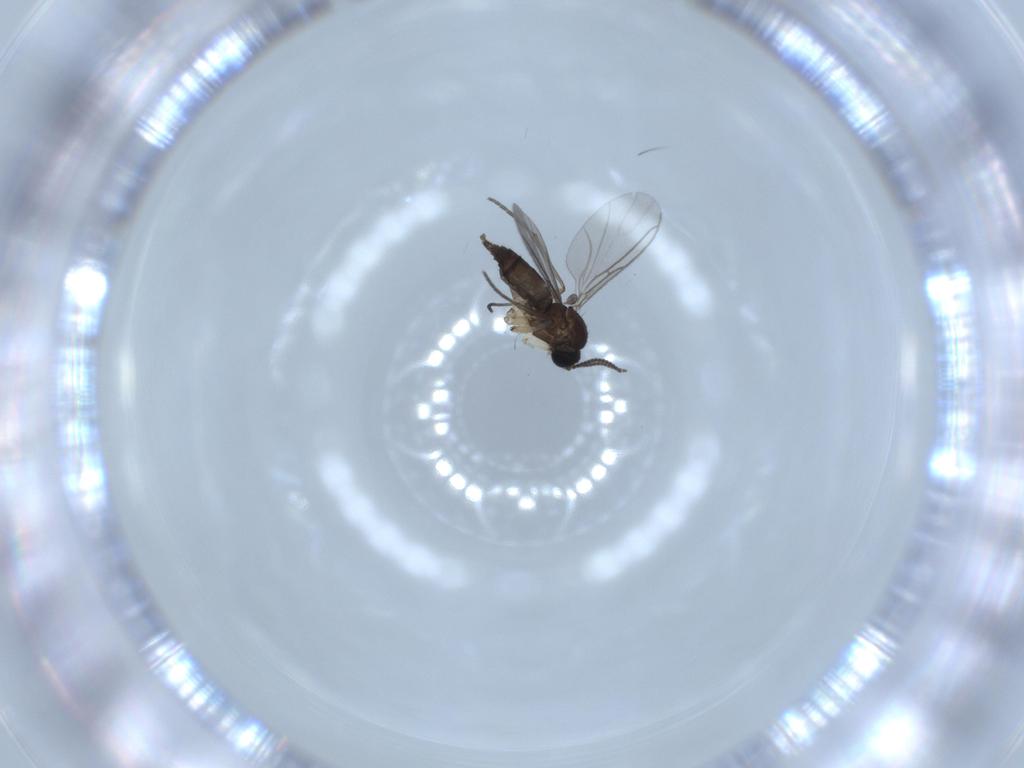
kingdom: Animalia
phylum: Arthropoda
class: Insecta
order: Diptera
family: Sciaridae
